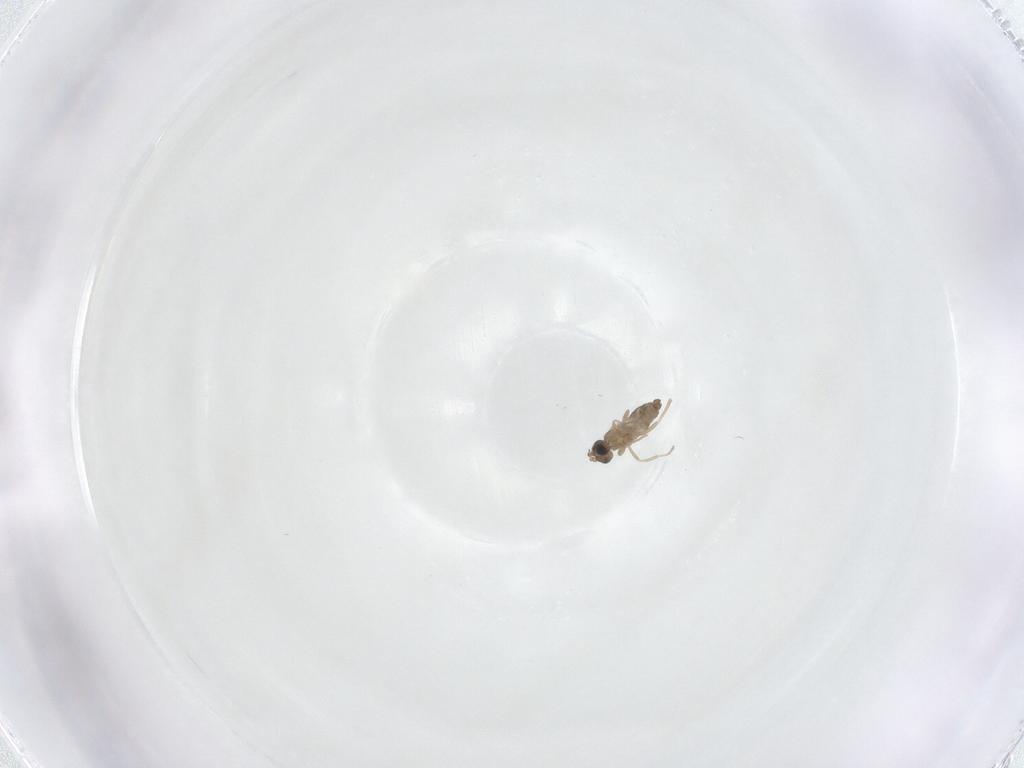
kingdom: Animalia
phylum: Arthropoda
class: Insecta
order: Diptera
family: Cecidomyiidae
